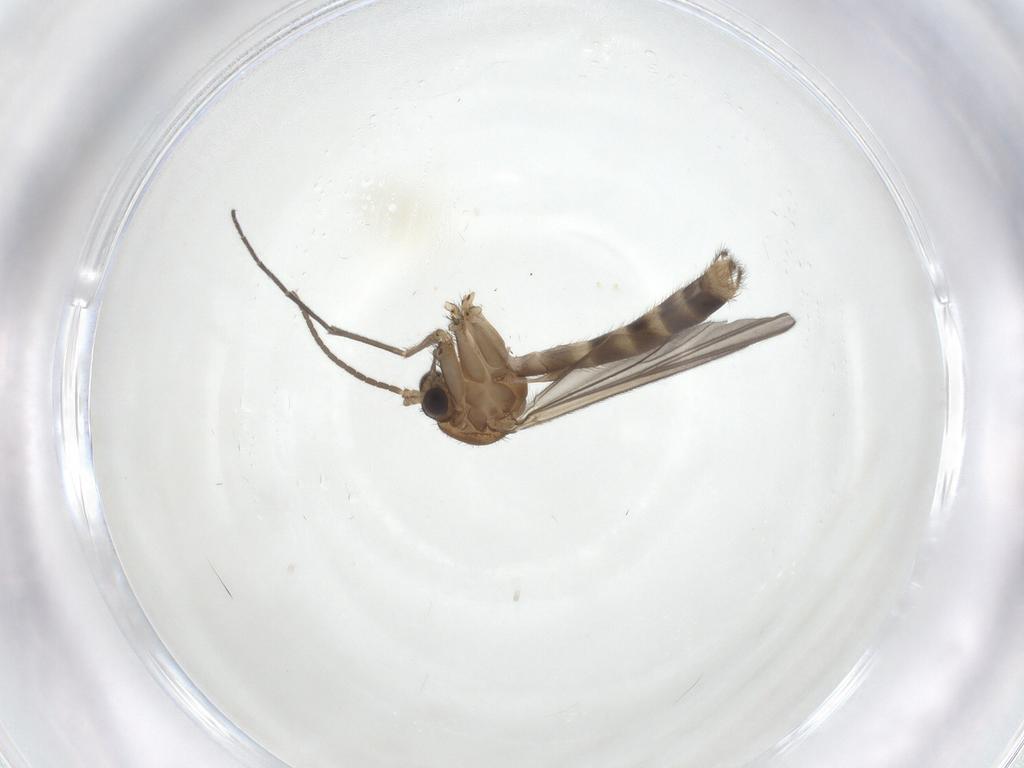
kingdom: Animalia
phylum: Arthropoda
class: Insecta
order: Diptera
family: Mycetophilidae
